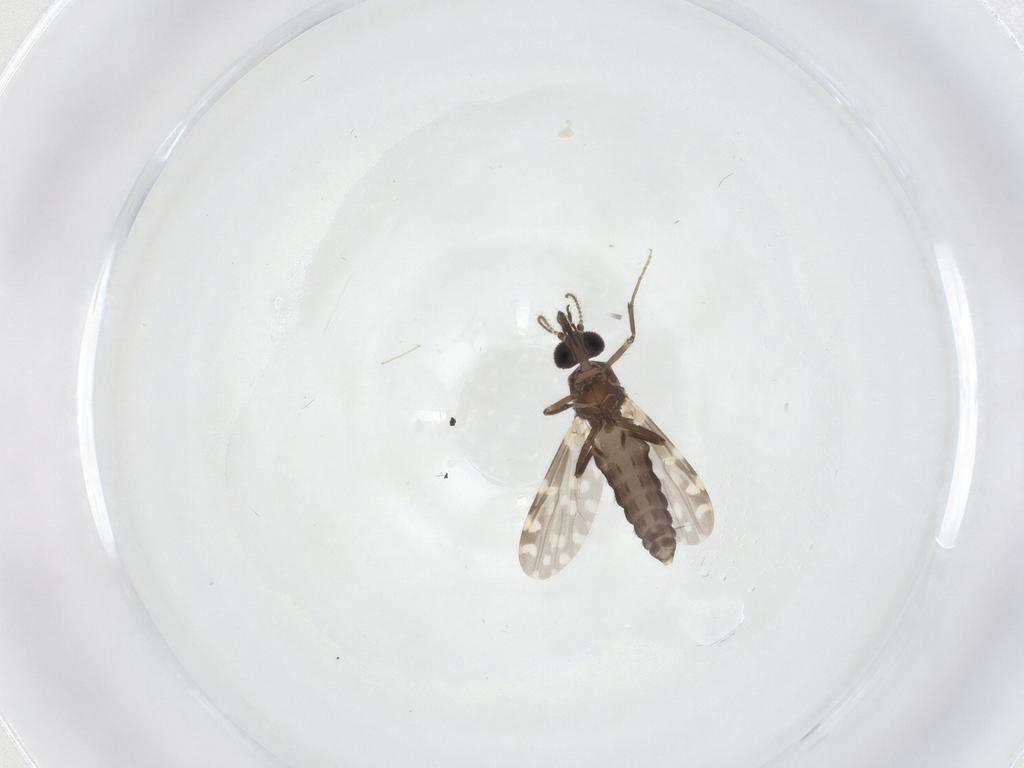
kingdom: Animalia
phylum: Arthropoda
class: Insecta
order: Diptera
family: Ceratopogonidae
